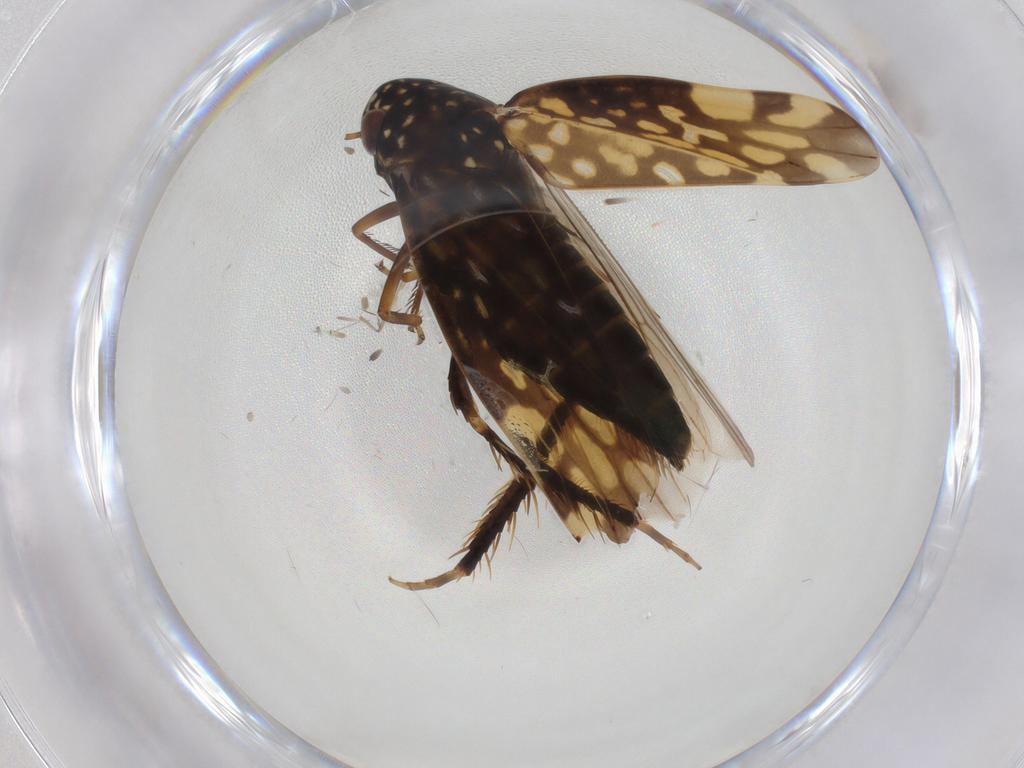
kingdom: Animalia
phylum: Arthropoda
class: Insecta
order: Hemiptera
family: Cicadellidae
